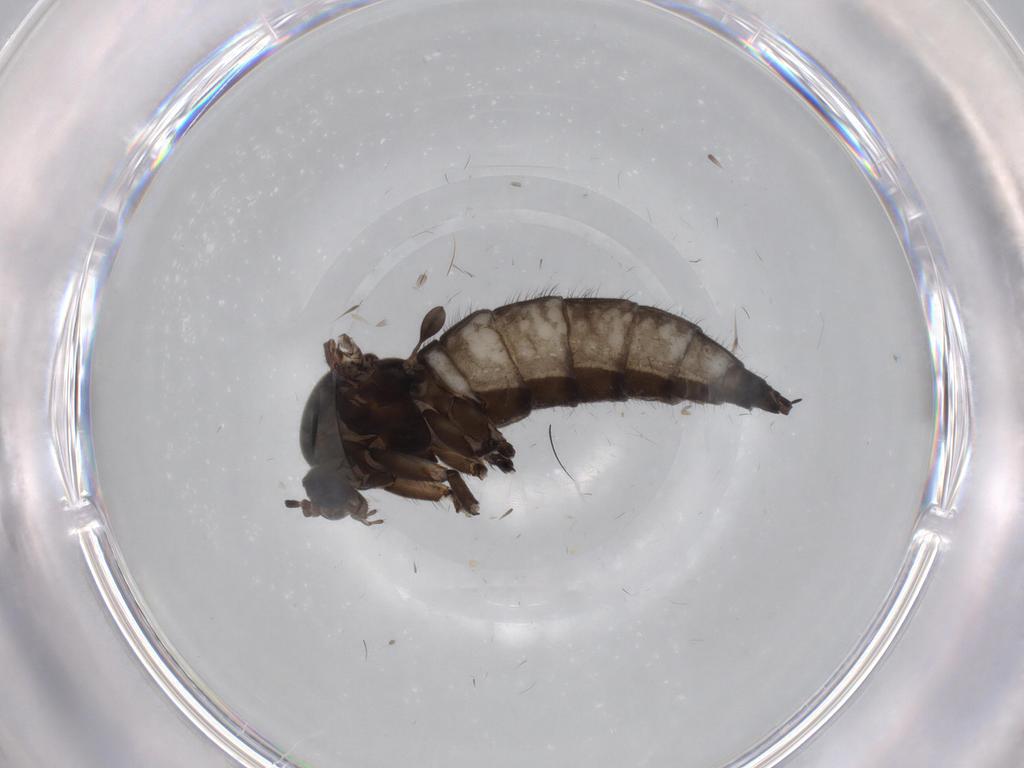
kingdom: Animalia
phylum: Arthropoda
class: Insecta
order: Diptera
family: Sciaridae
